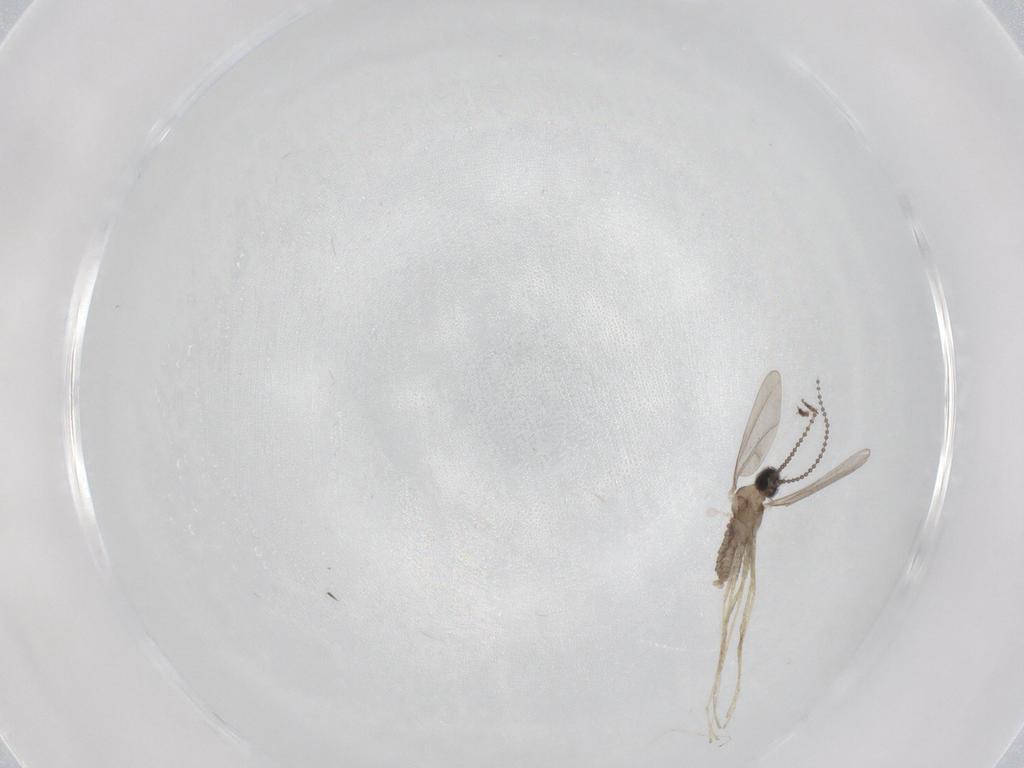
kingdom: Animalia
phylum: Arthropoda
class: Insecta
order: Diptera
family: Cecidomyiidae
